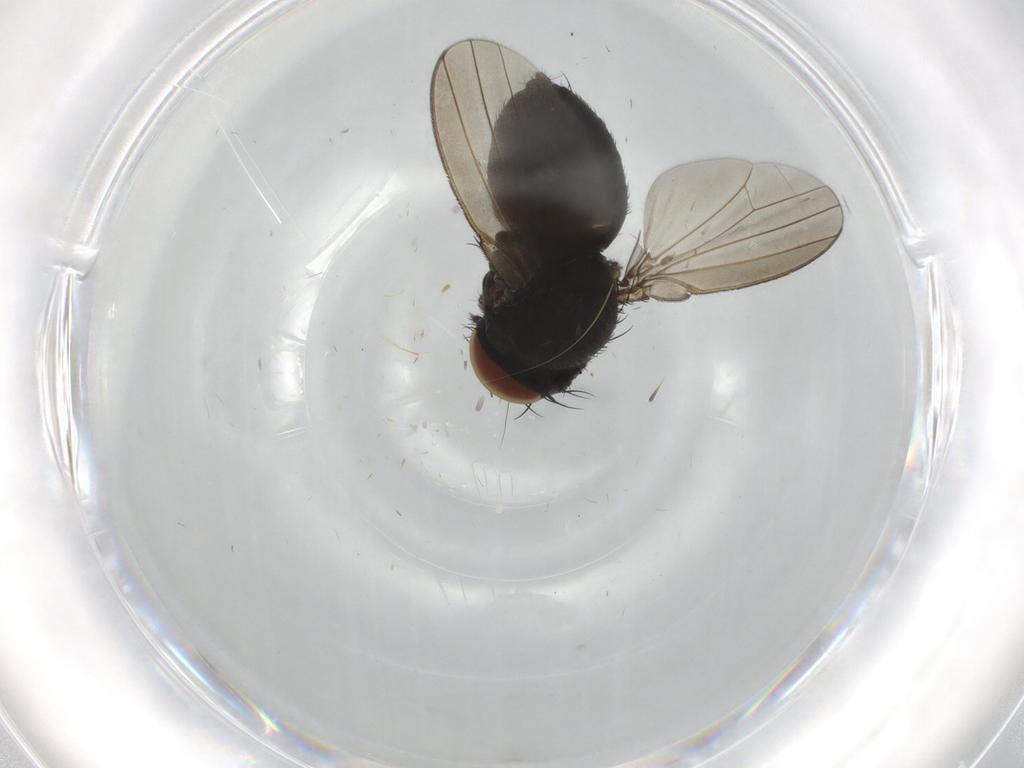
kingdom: Animalia
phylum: Arthropoda
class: Insecta
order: Diptera
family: Milichiidae
